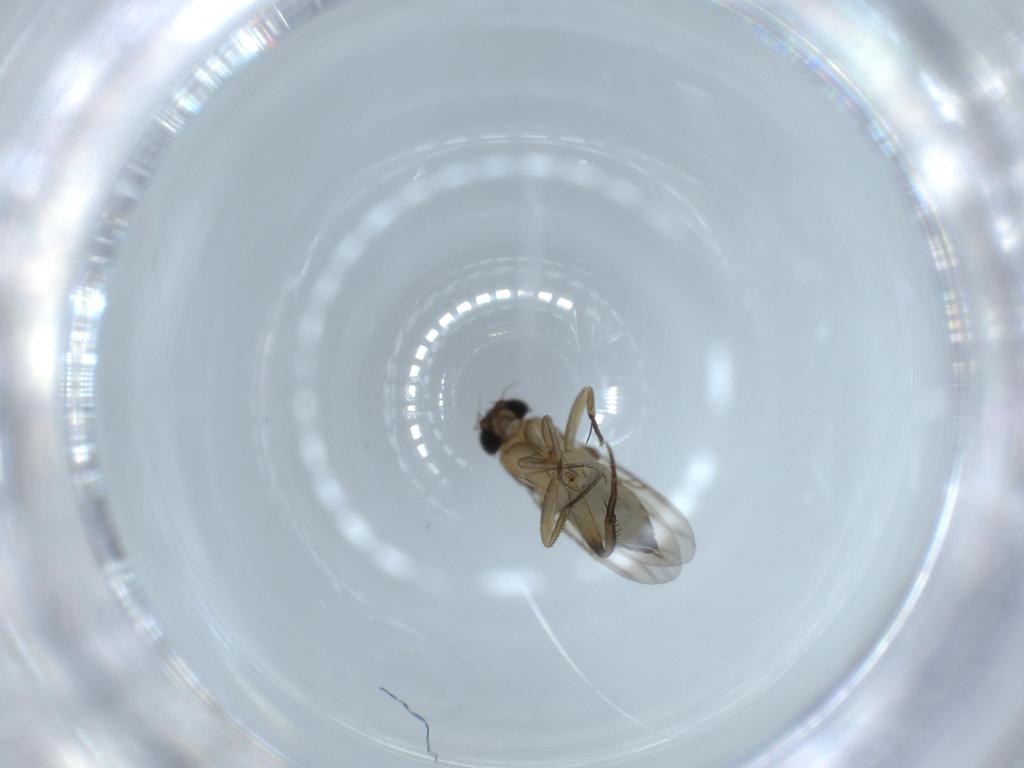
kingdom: Animalia
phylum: Arthropoda
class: Insecta
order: Diptera
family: Phoridae
